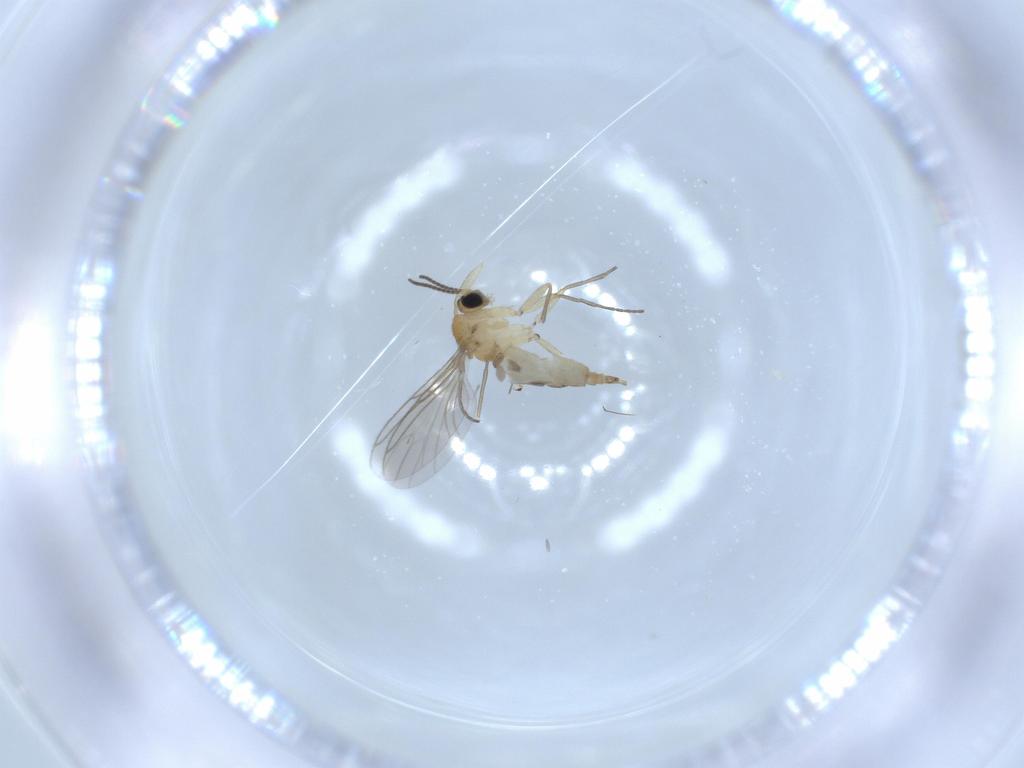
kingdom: Animalia
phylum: Arthropoda
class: Insecta
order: Diptera
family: Sciaridae
